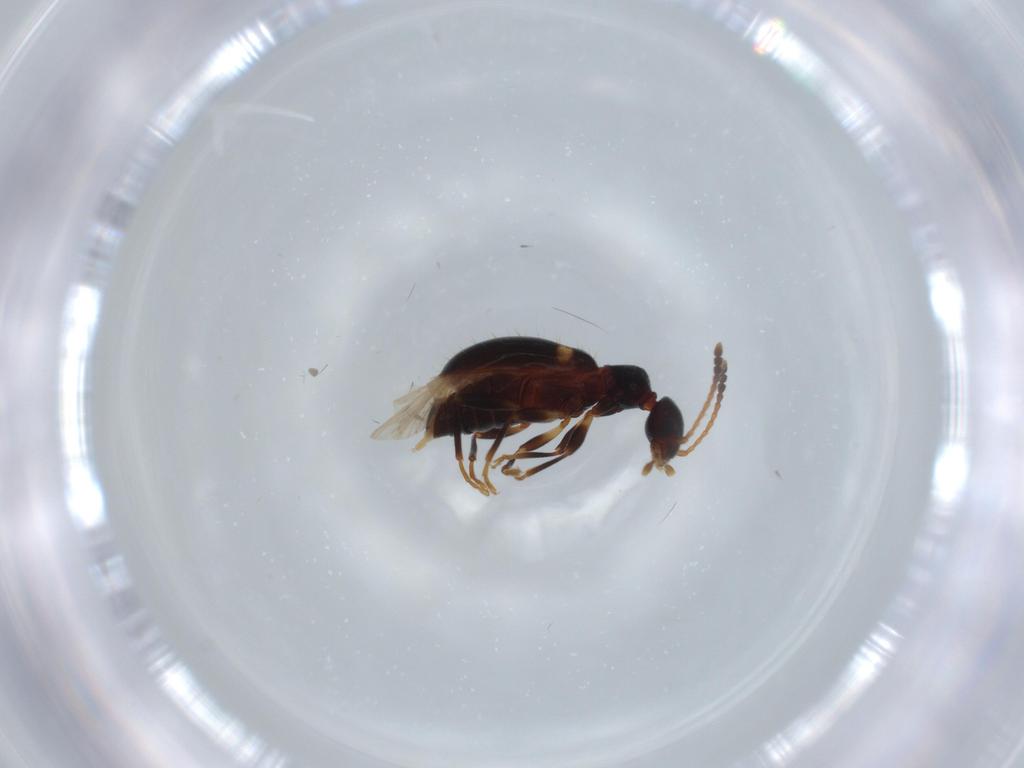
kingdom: Animalia
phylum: Arthropoda
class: Insecta
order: Coleoptera
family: Anthicidae
